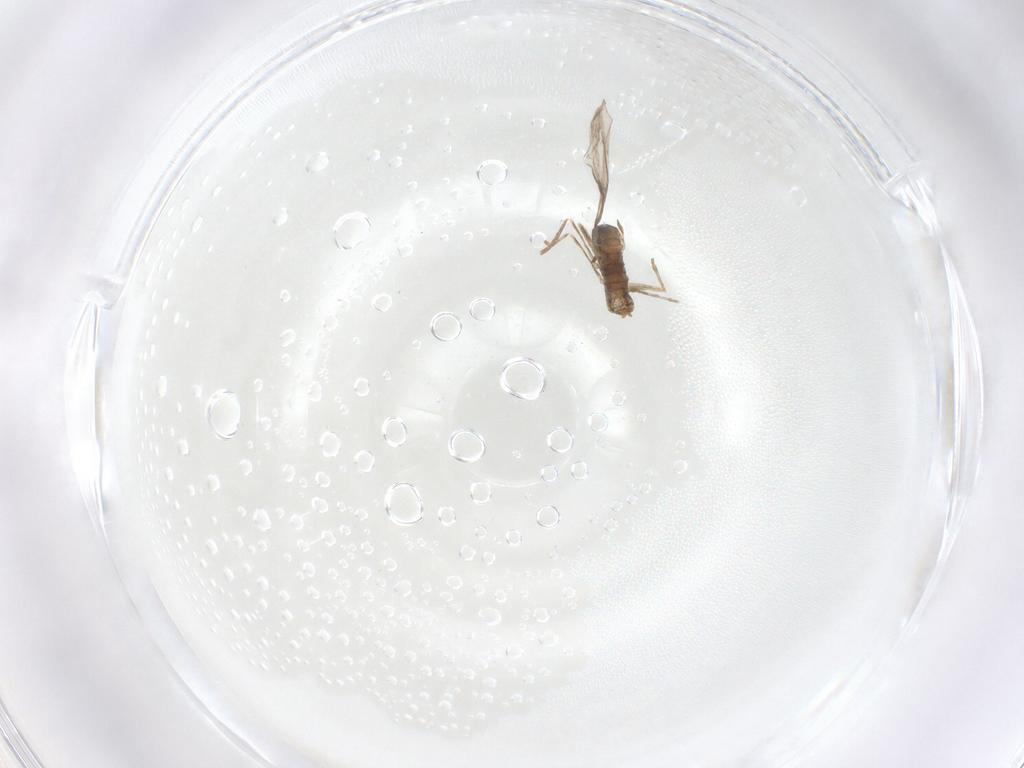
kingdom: Animalia
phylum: Arthropoda
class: Insecta
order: Diptera
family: Cecidomyiidae
